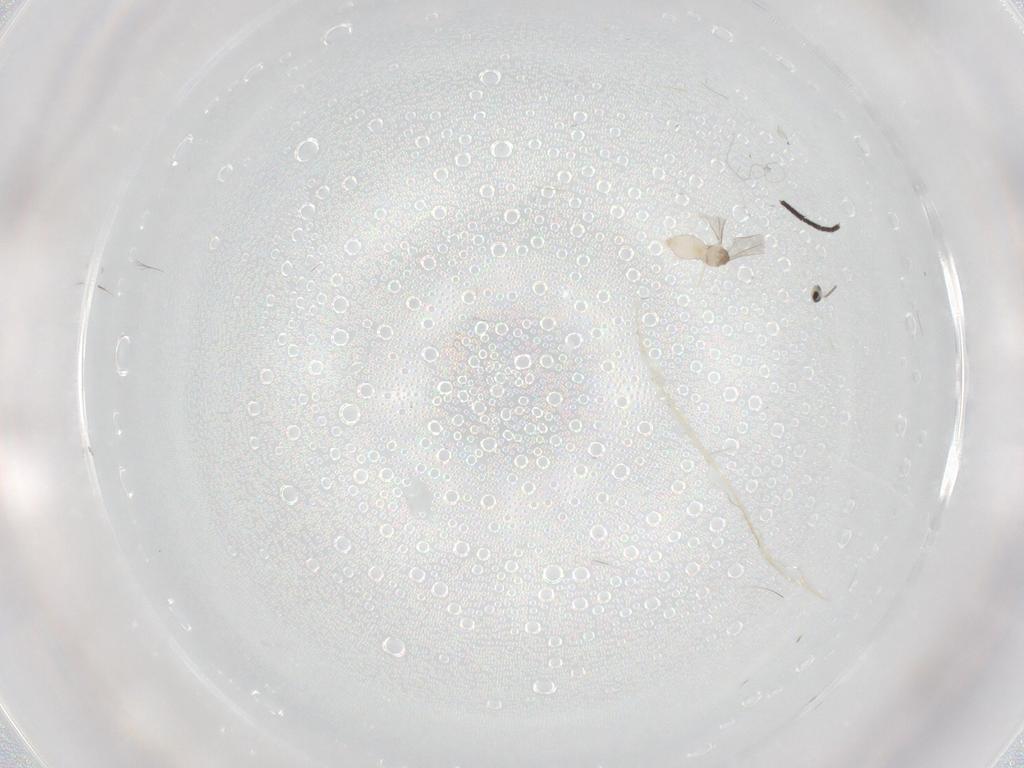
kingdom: Animalia
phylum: Arthropoda
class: Insecta
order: Diptera
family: Cecidomyiidae
